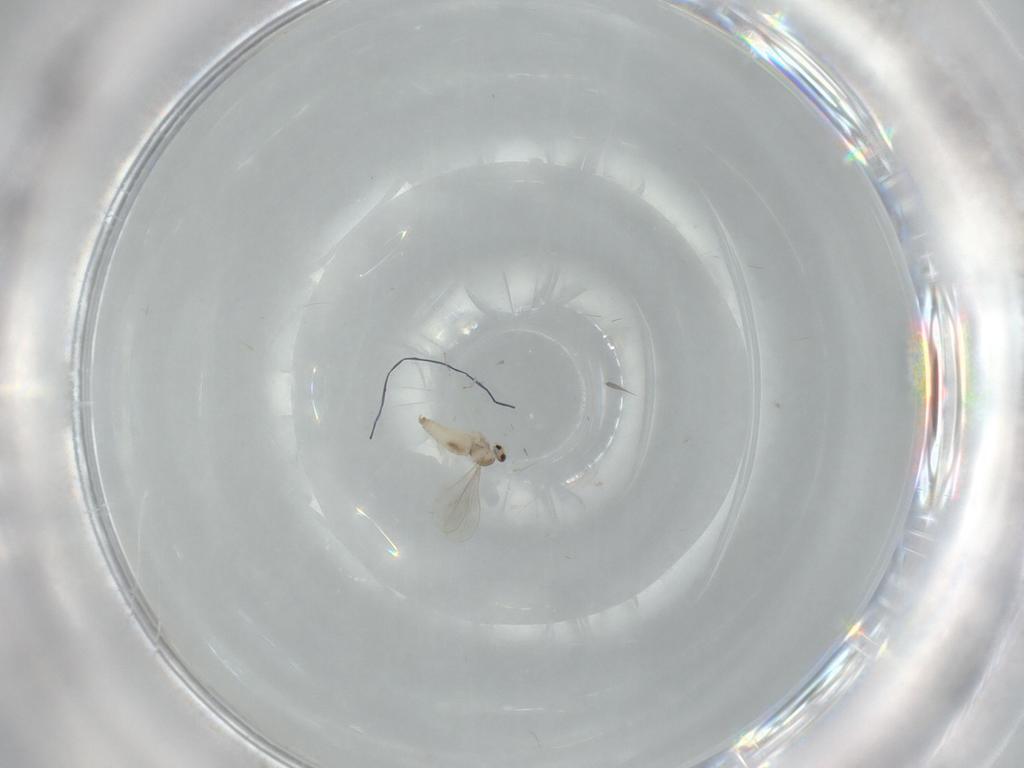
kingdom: Animalia
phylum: Arthropoda
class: Insecta
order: Diptera
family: Cecidomyiidae
